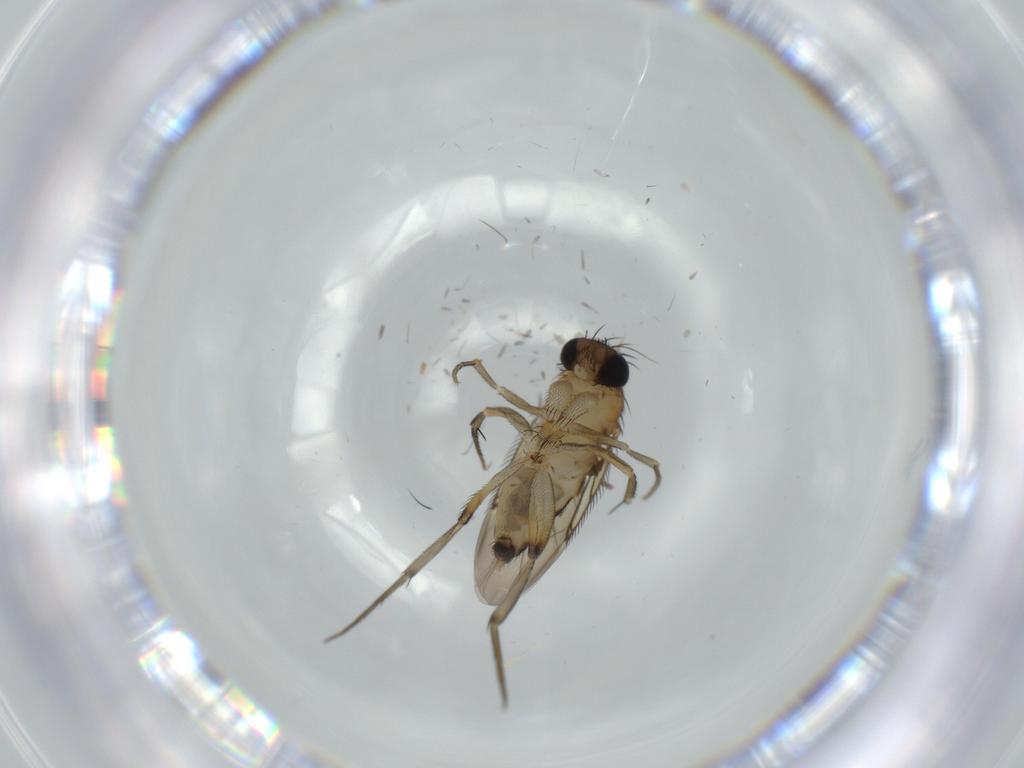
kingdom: Animalia
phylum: Arthropoda
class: Insecta
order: Diptera
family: Phoridae
